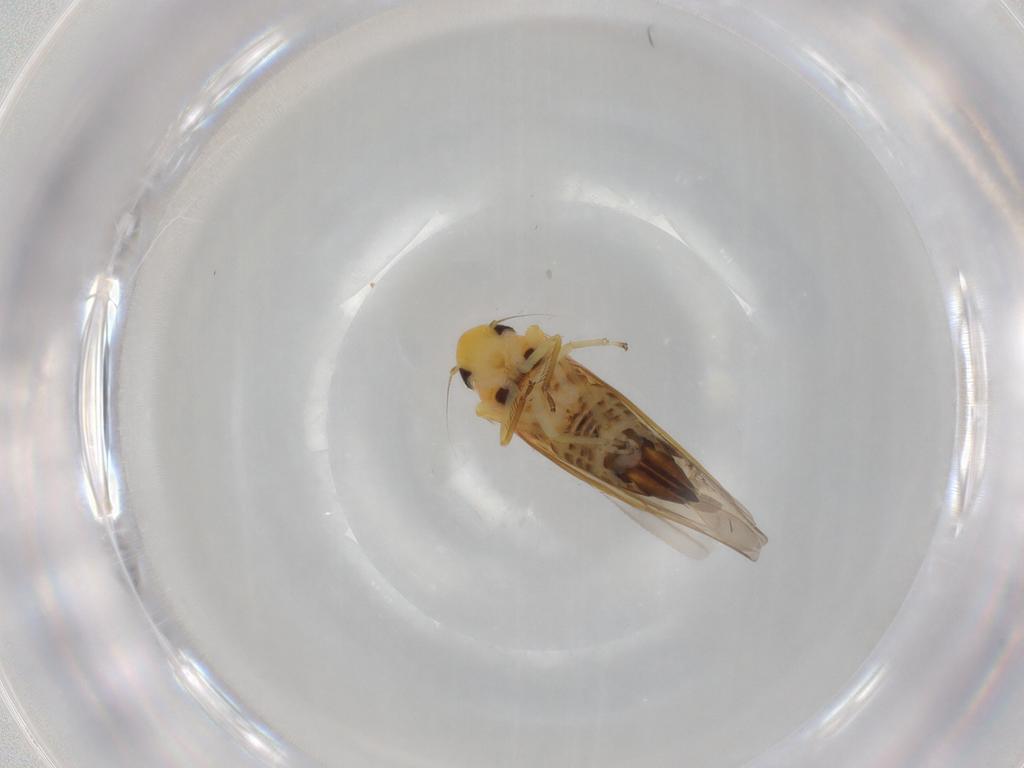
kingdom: Animalia
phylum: Arthropoda
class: Insecta
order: Hemiptera
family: Cicadellidae
